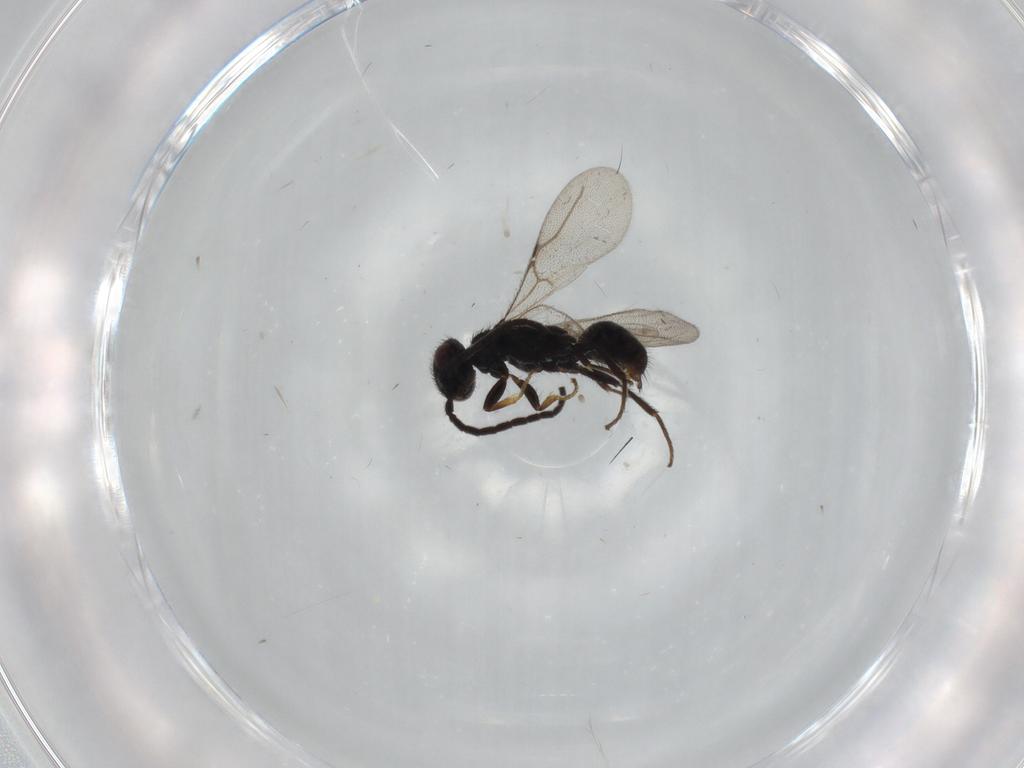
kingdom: Animalia
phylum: Arthropoda
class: Insecta
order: Hymenoptera
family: Bethylidae
